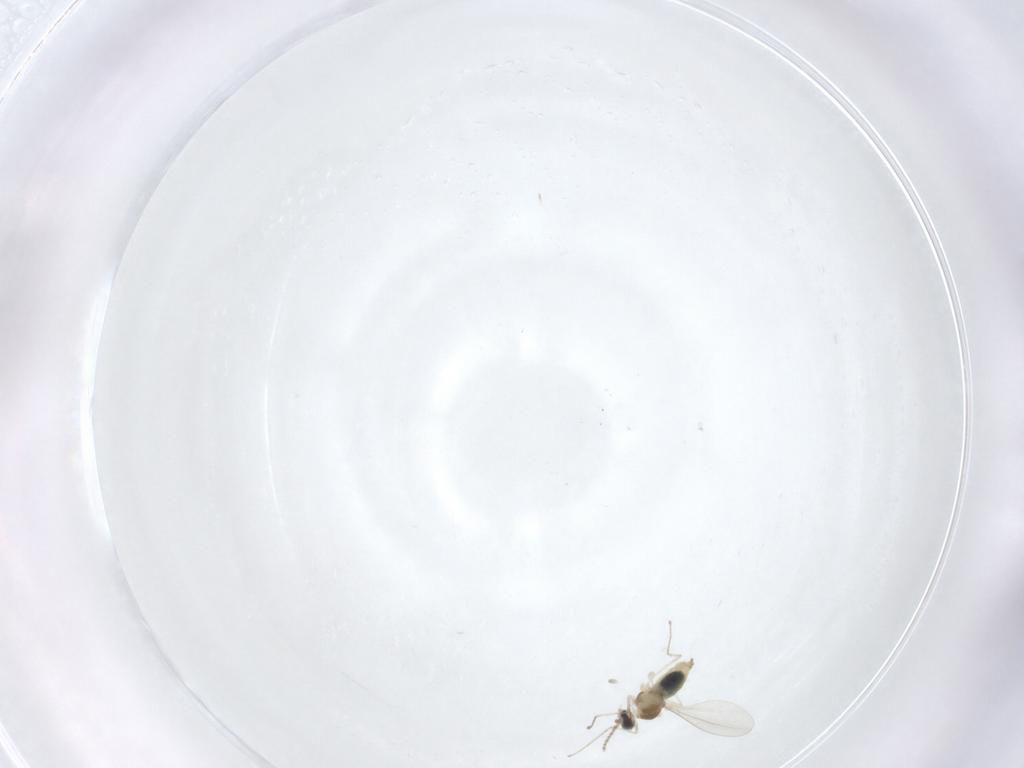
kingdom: Animalia
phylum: Arthropoda
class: Insecta
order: Diptera
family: Cecidomyiidae
